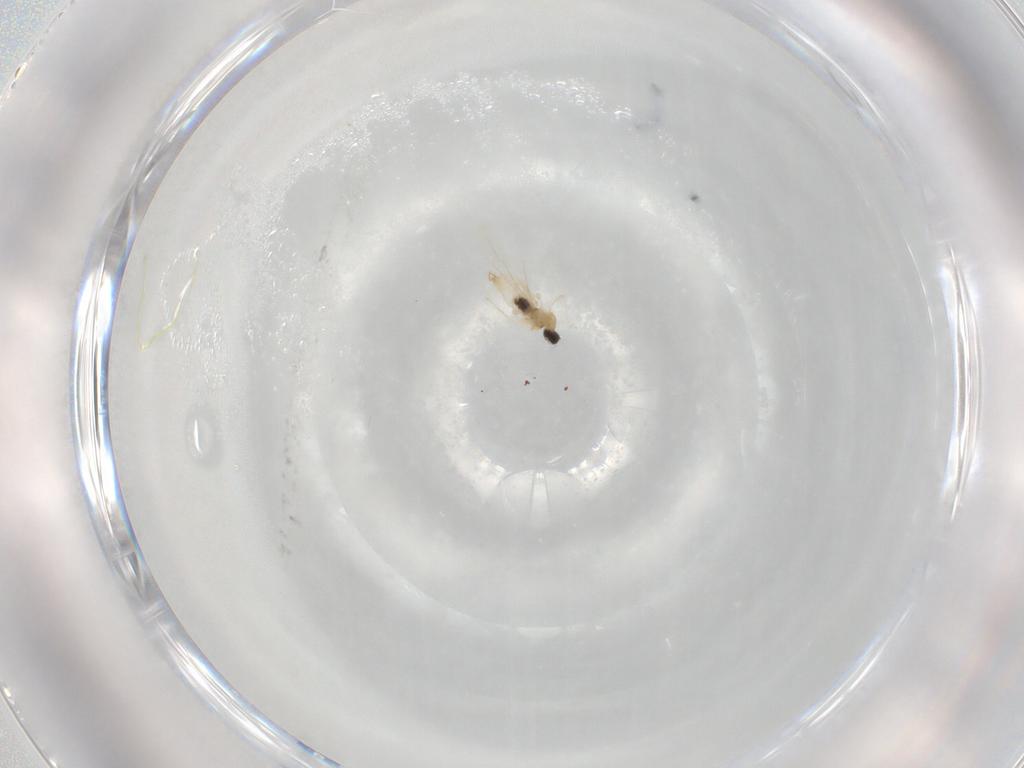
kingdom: Animalia
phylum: Arthropoda
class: Insecta
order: Diptera
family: Cecidomyiidae
